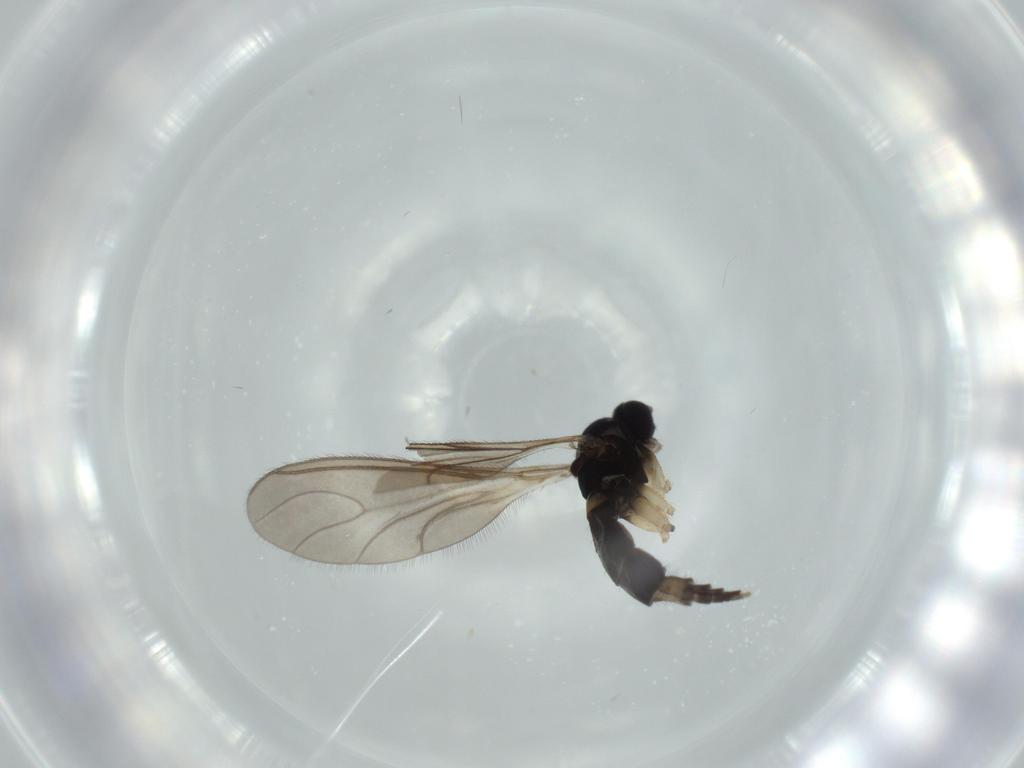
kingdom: Animalia
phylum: Arthropoda
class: Insecta
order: Diptera
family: Sciaridae
